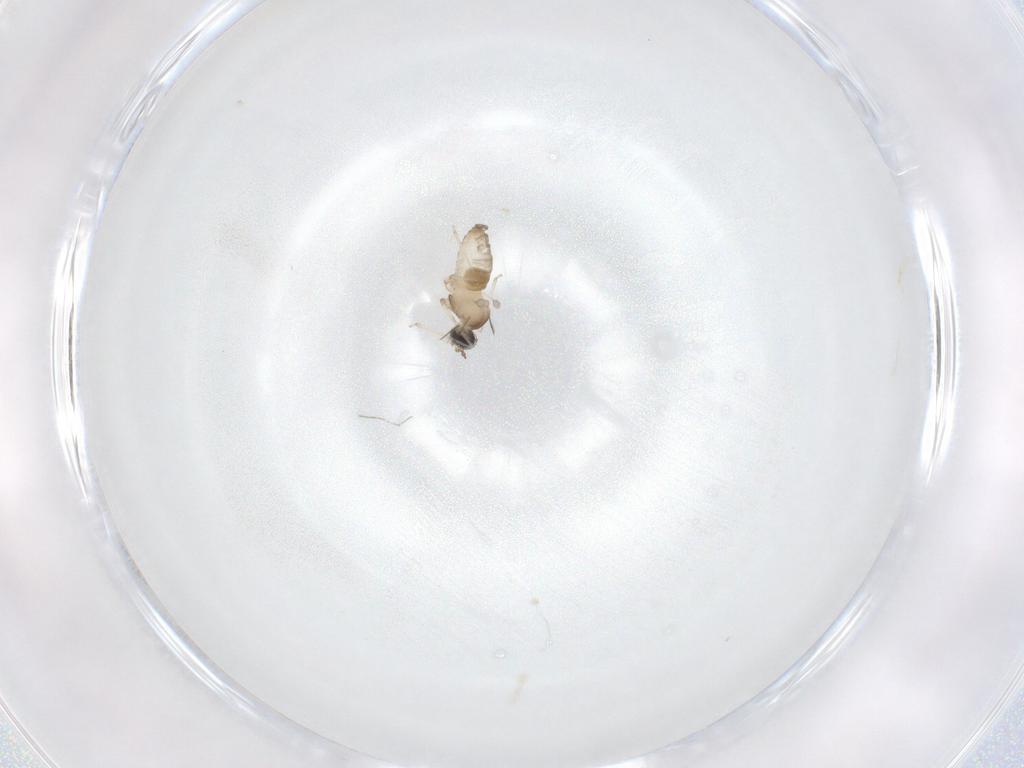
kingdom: Animalia
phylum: Arthropoda
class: Insecta
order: Diptera
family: Cecidomyiidae
